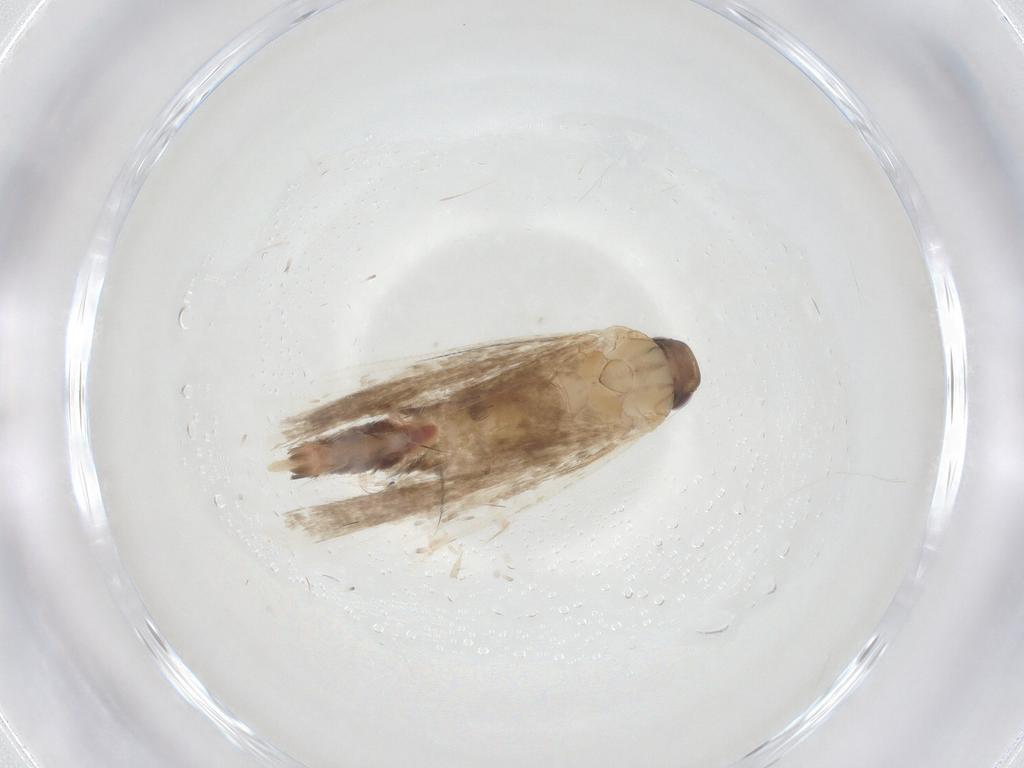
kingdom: Animalia
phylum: Arthropoda
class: Insecta
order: Lepidoptera
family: Gelechiidae
